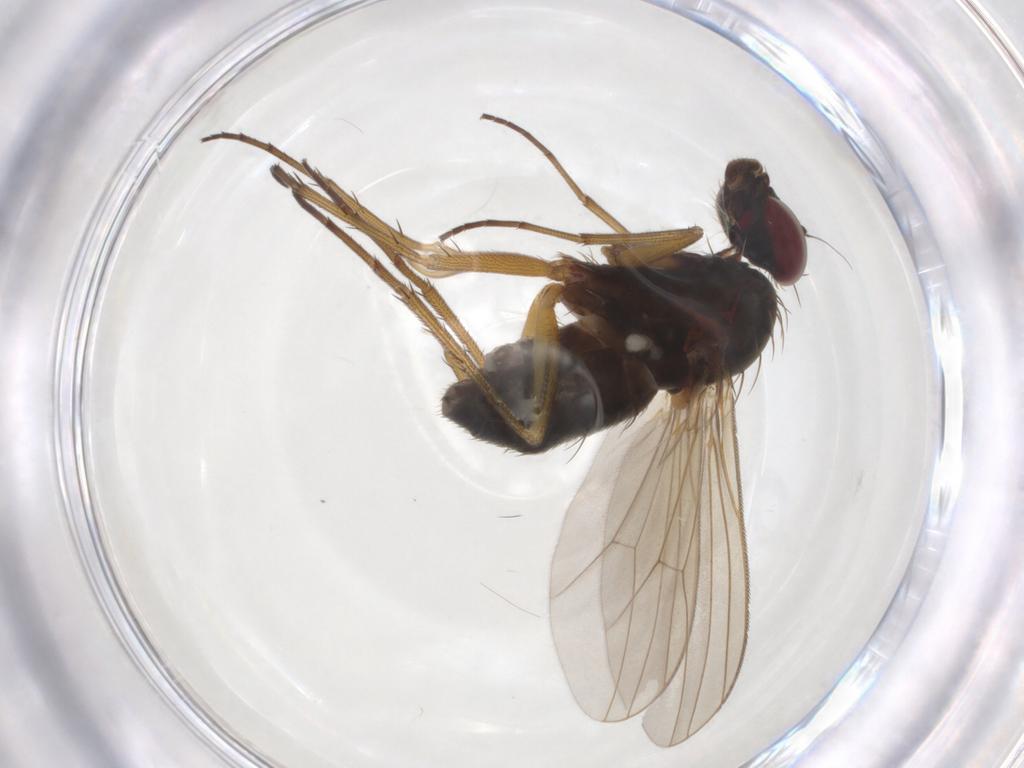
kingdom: Animalia
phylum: Arthropoda
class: Insecta
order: Diptera
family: Dolichopodidae
